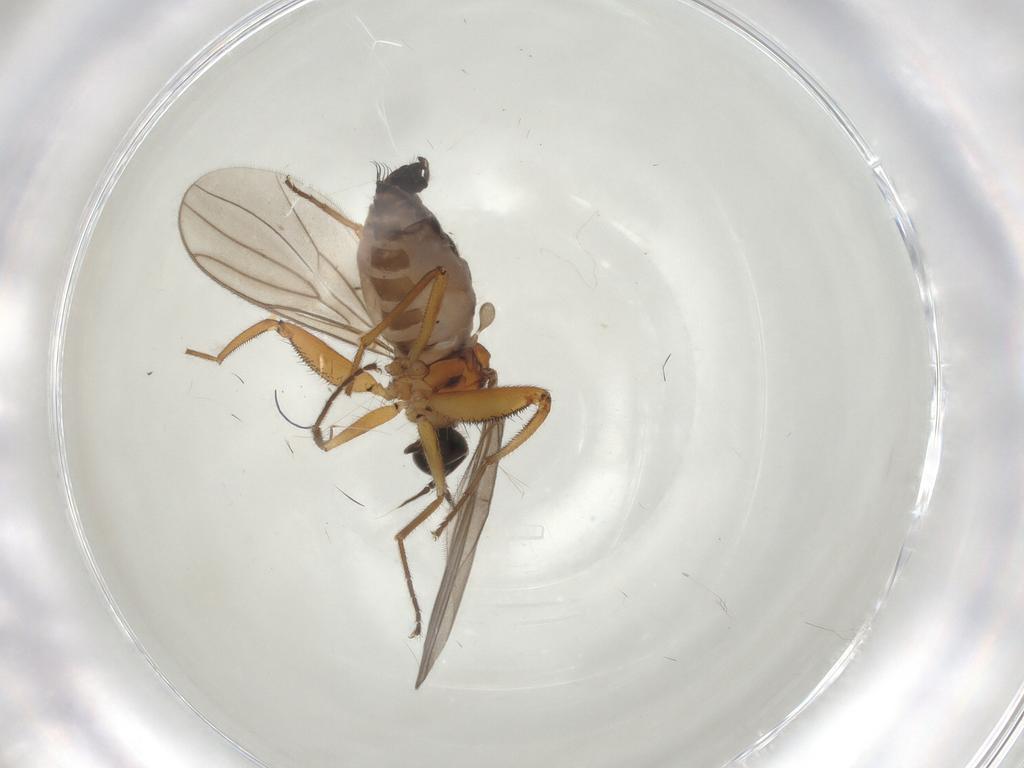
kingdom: Animalia
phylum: Arthropoda
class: Insecta
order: Diptera
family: Hybotidae
